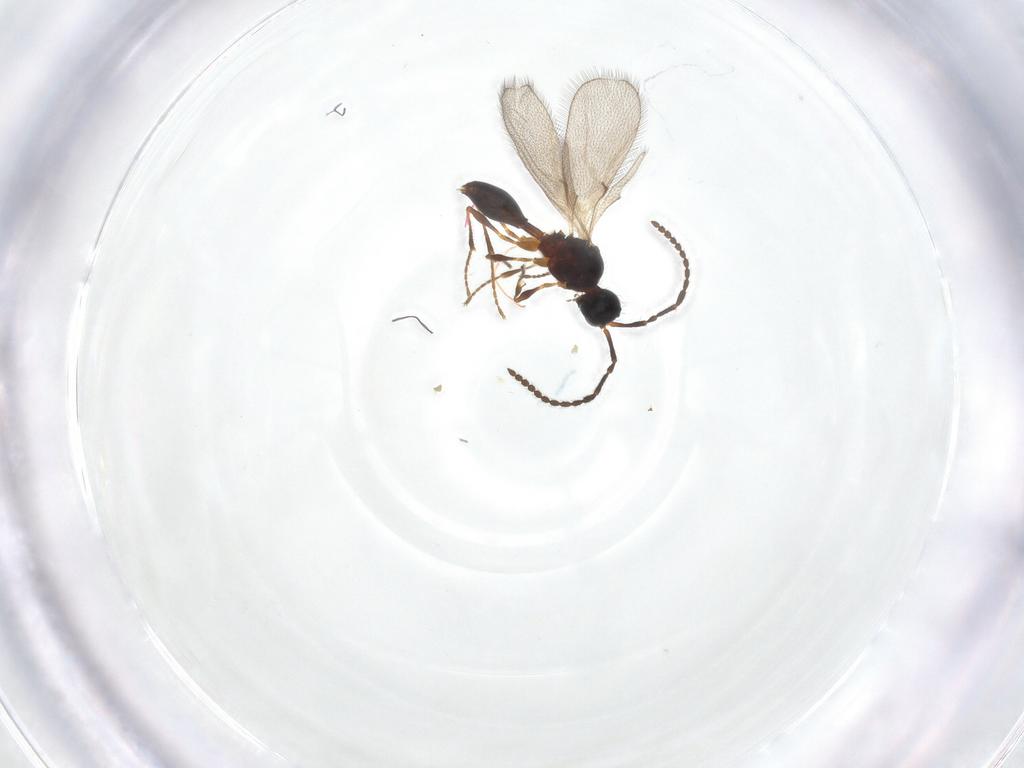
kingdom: Animalia
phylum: Arthropoda
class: Insecta
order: Hymenoptera
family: Diapriidae
